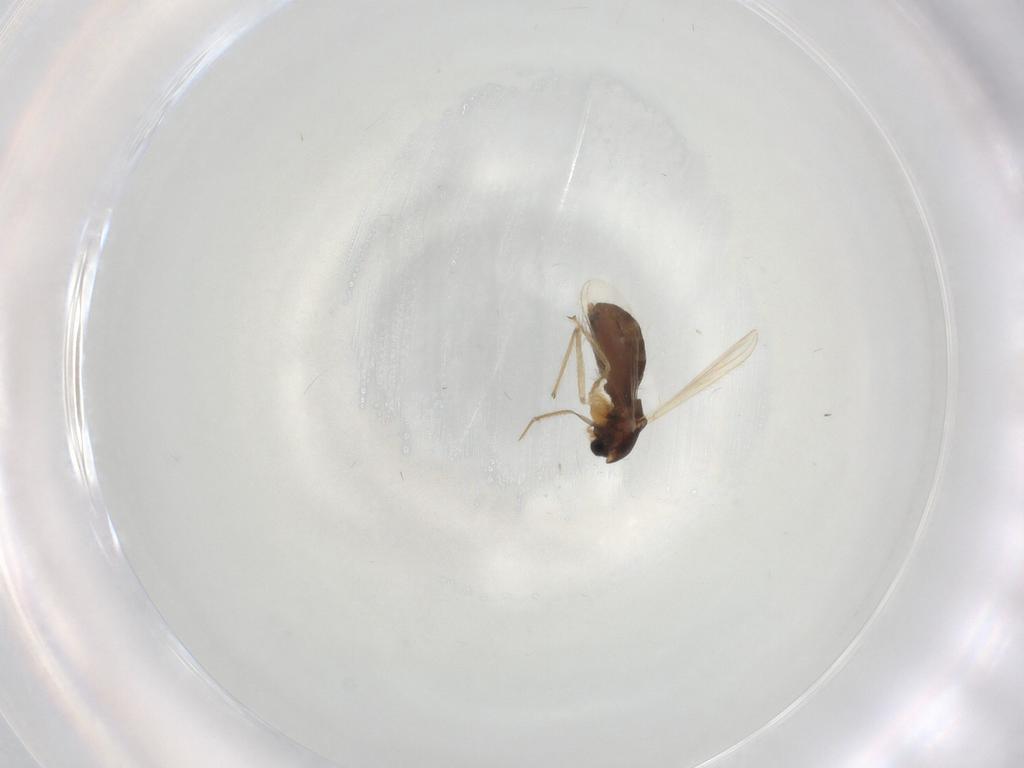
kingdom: Animalia
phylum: Arthropoda
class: Insecta
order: Diptera
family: Chironomidae
